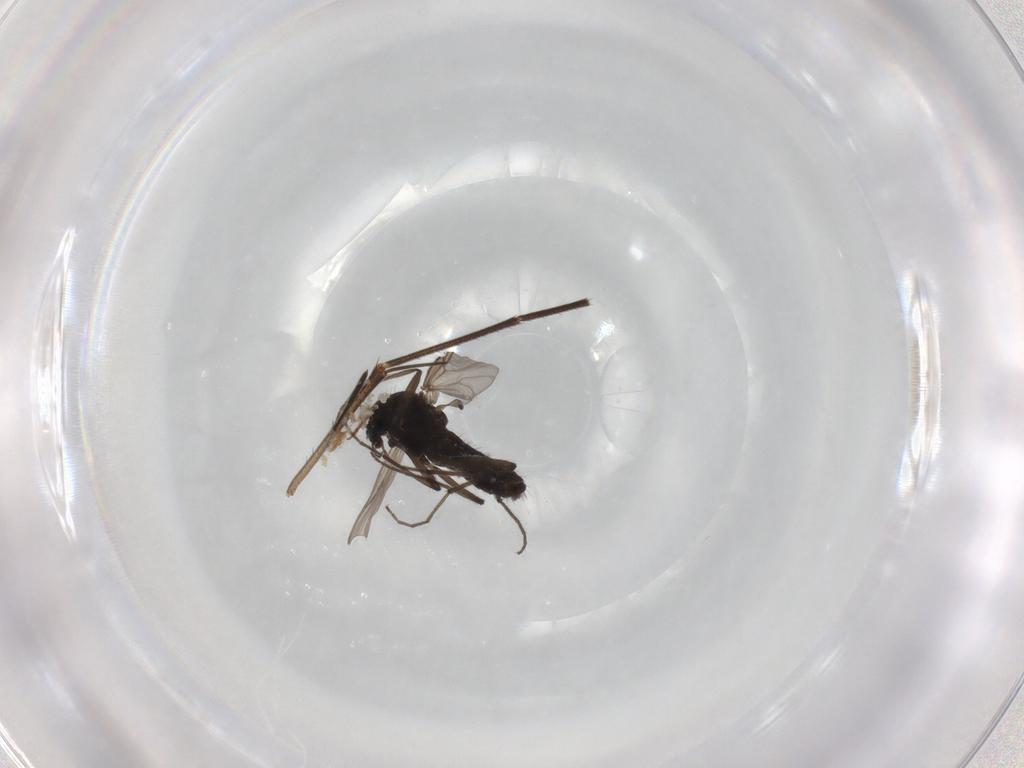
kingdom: Animalia
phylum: Arthropoda
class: Insecta
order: Diptera
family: Chironomidae
